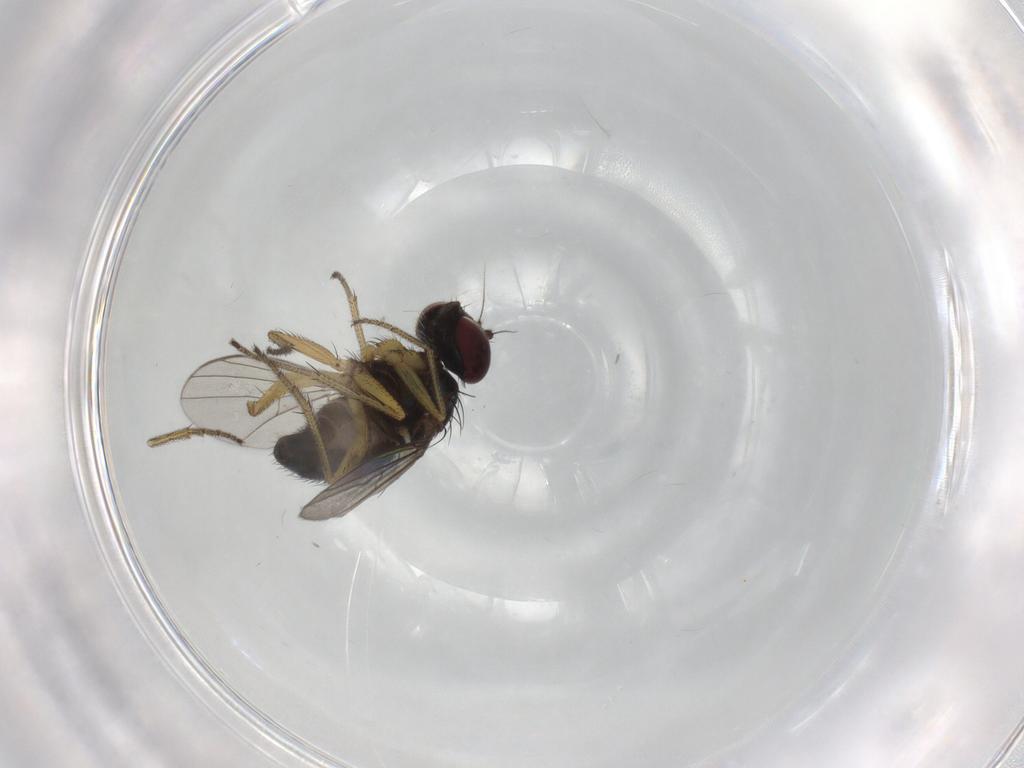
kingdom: Animalia
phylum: Arthropoda
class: Insecta
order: Diptera
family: Dolichopodidae
